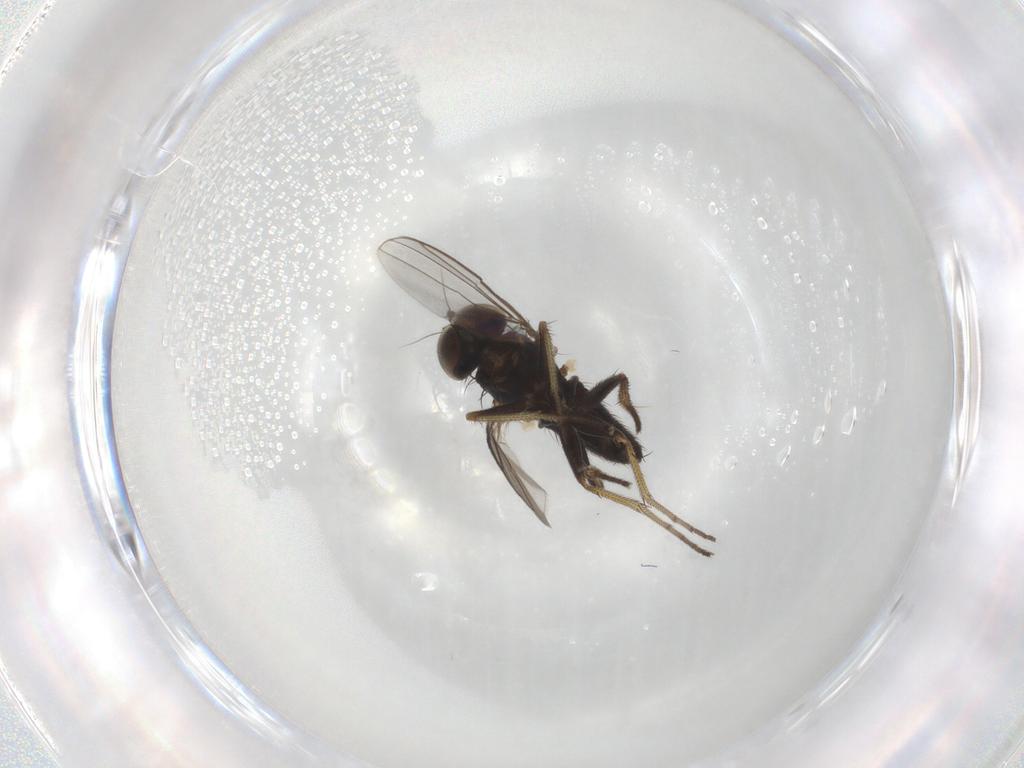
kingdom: Animalia
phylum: Arthropoda
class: Insecta
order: Diptera
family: Dolichopodidae
